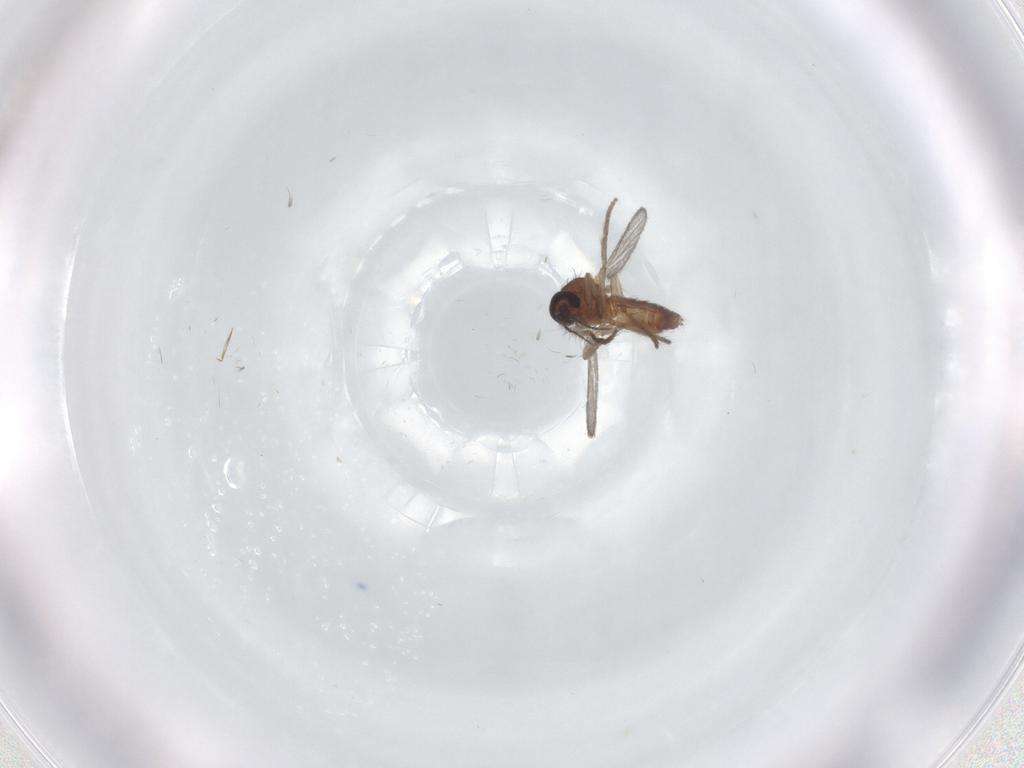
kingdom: Animalia
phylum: Arthropoda
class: Insecta
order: Diptera
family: Ceratopogonidae
